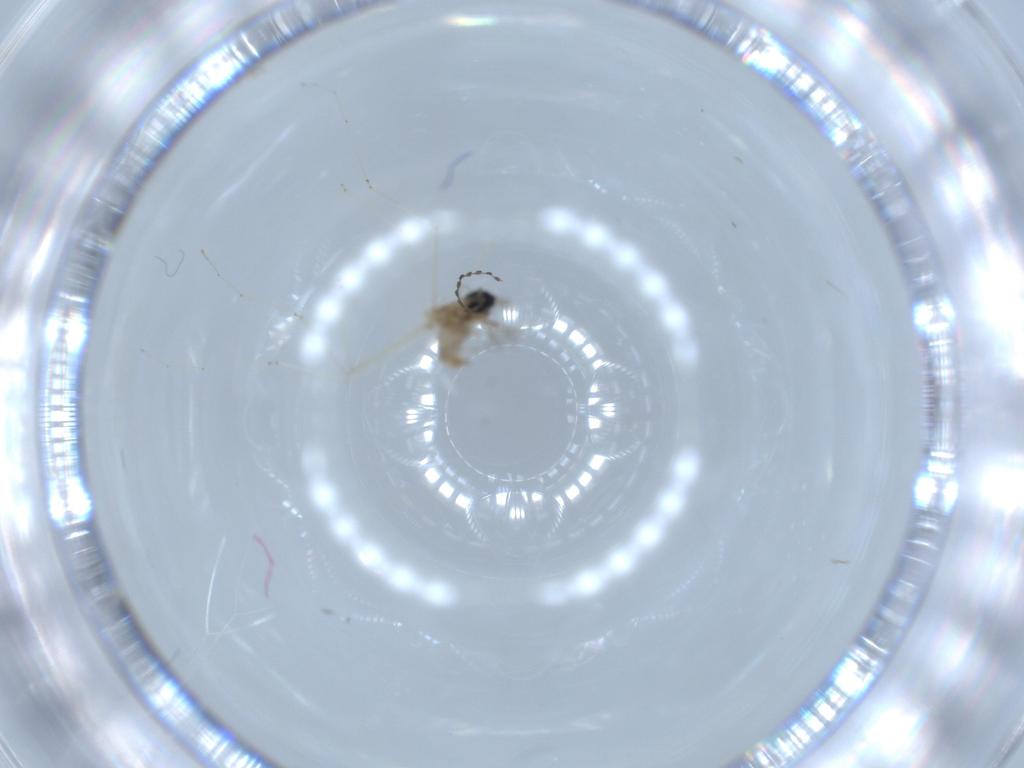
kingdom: Animalia
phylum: Arthropoda
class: Insecta
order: Diptera
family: Cecidomyiidae
